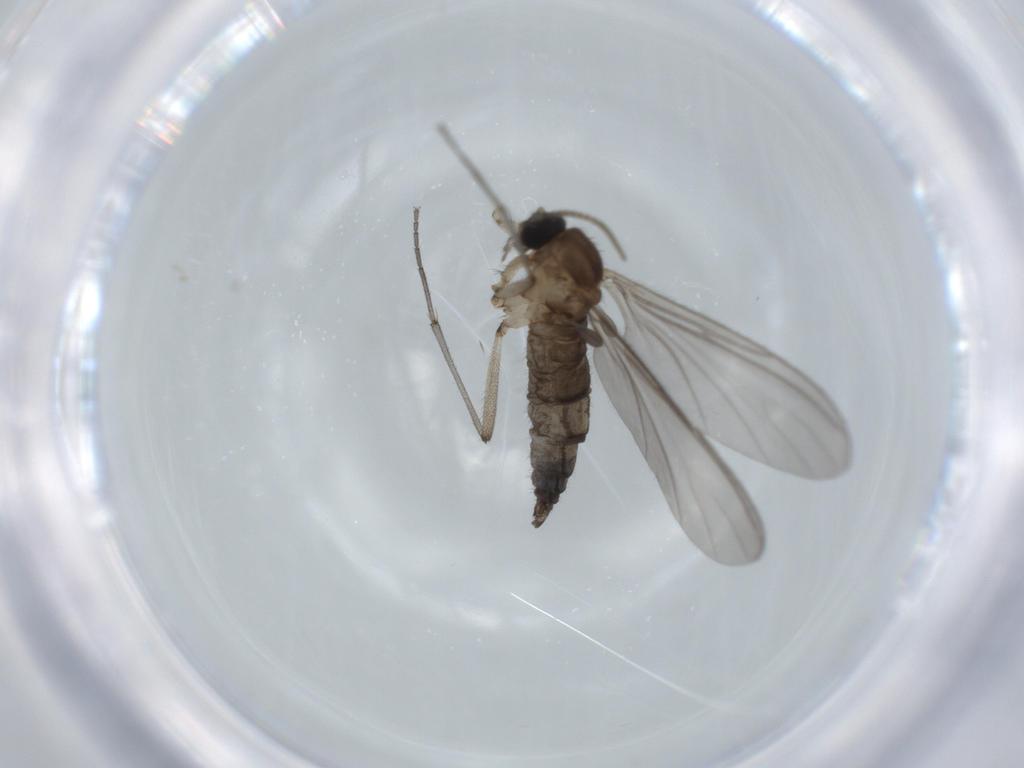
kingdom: Animalia
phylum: Arthropoda
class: Insecta
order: Diptera
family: Sciaridae
